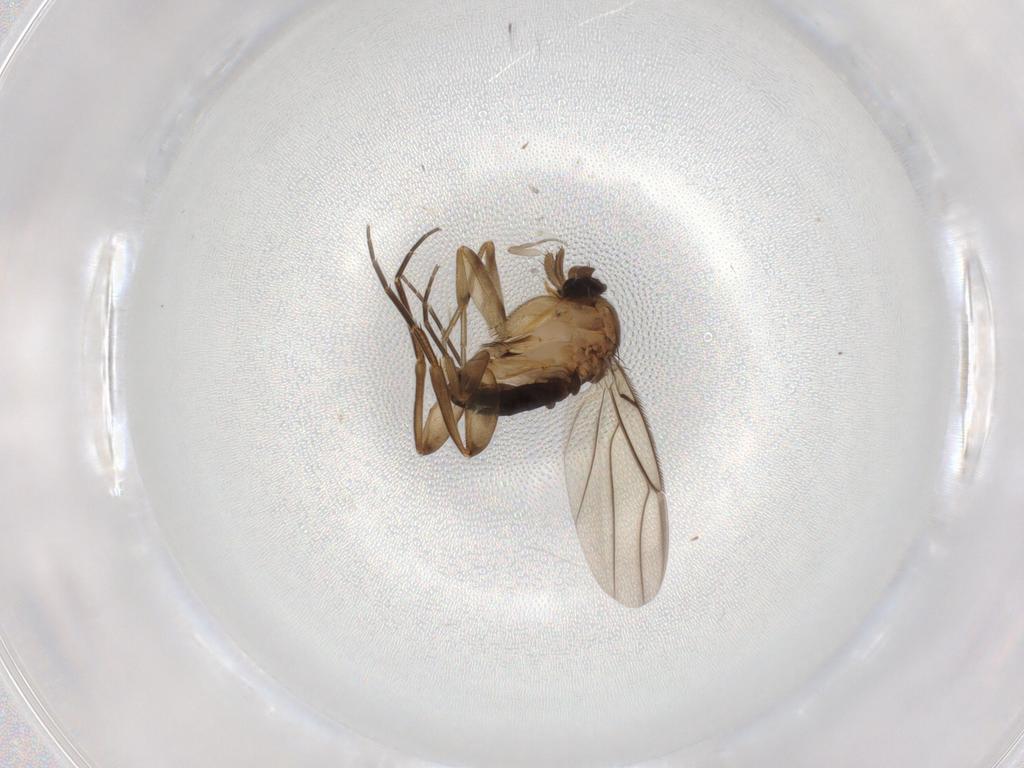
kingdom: Animalia
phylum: Arthropoda
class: Insecta
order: Diptera
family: Phoridae
